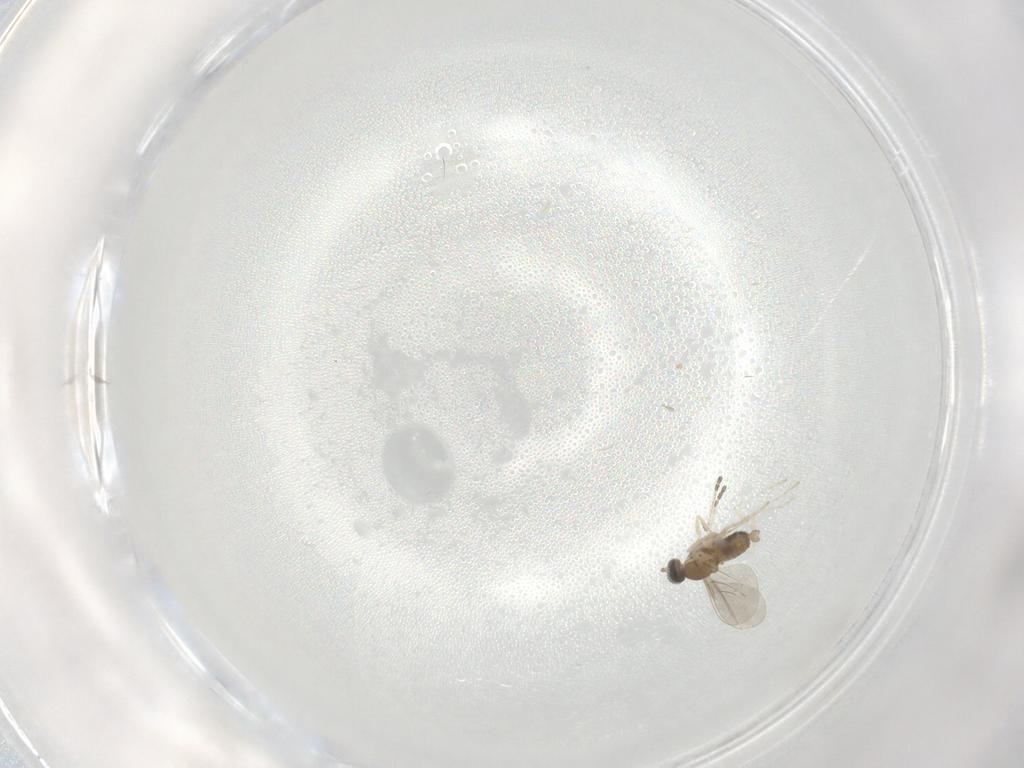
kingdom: Animalia
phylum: Arthropoda
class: Insecta
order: Diptera
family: Cecidomyiidae
